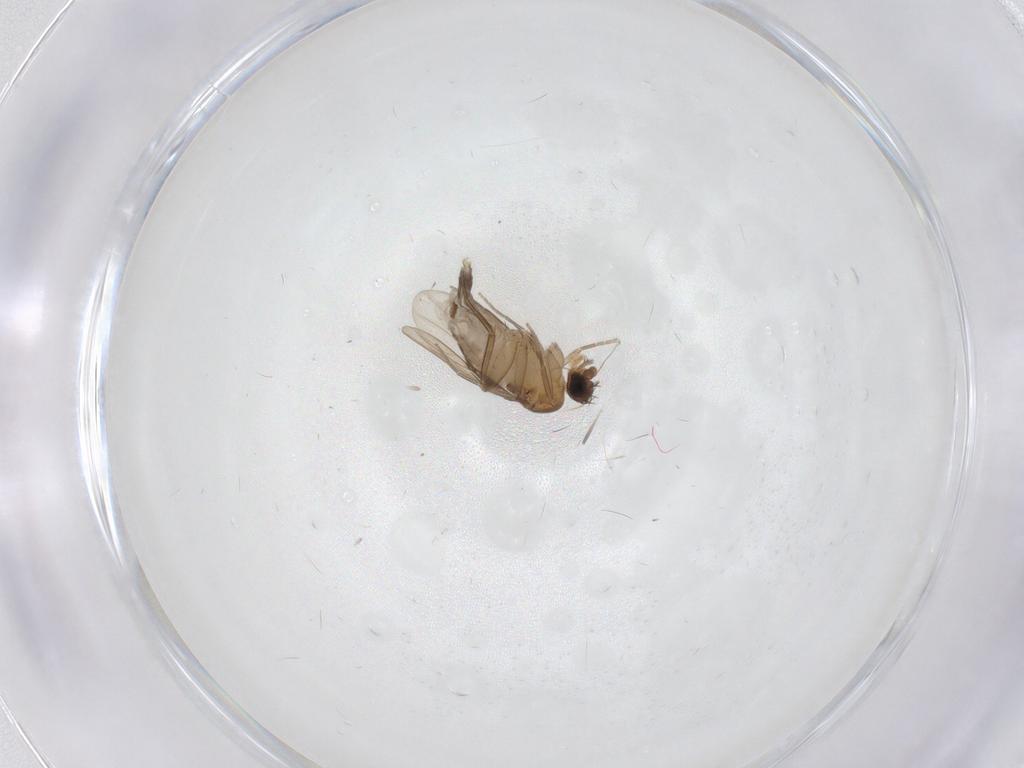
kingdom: Animalia
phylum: Arthropoda
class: Insecta
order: Diptera
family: Phoridae
